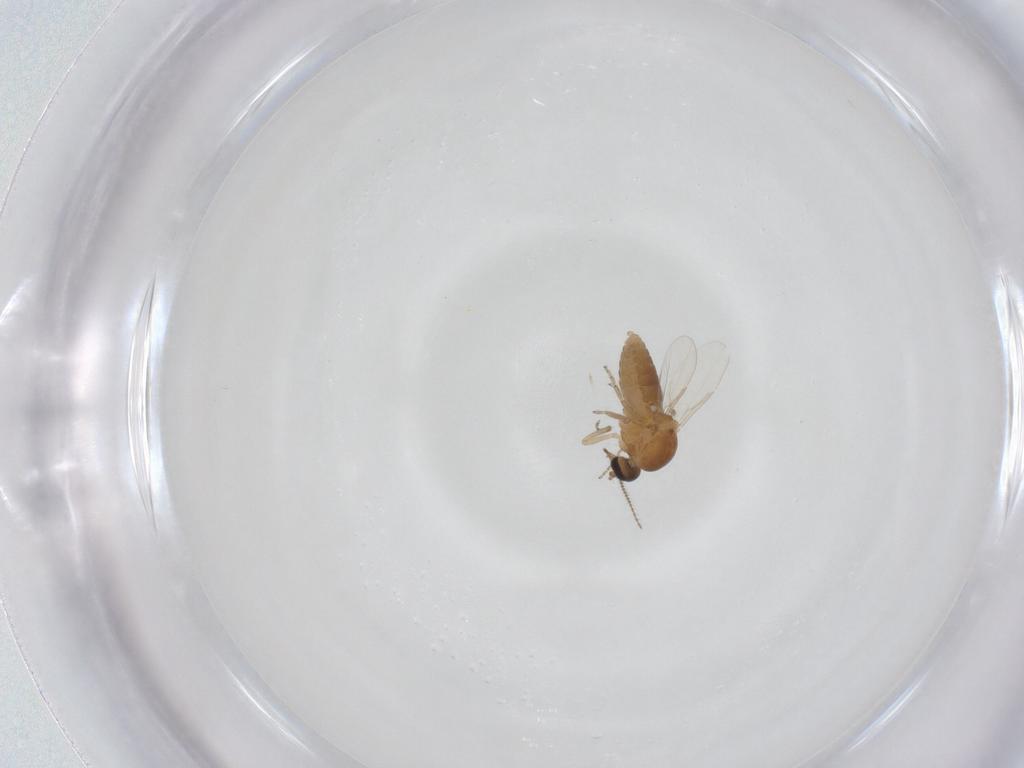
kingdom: Animalia
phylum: Arthropoda
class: Insecta
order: Diptera
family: Ceratopogonidae
